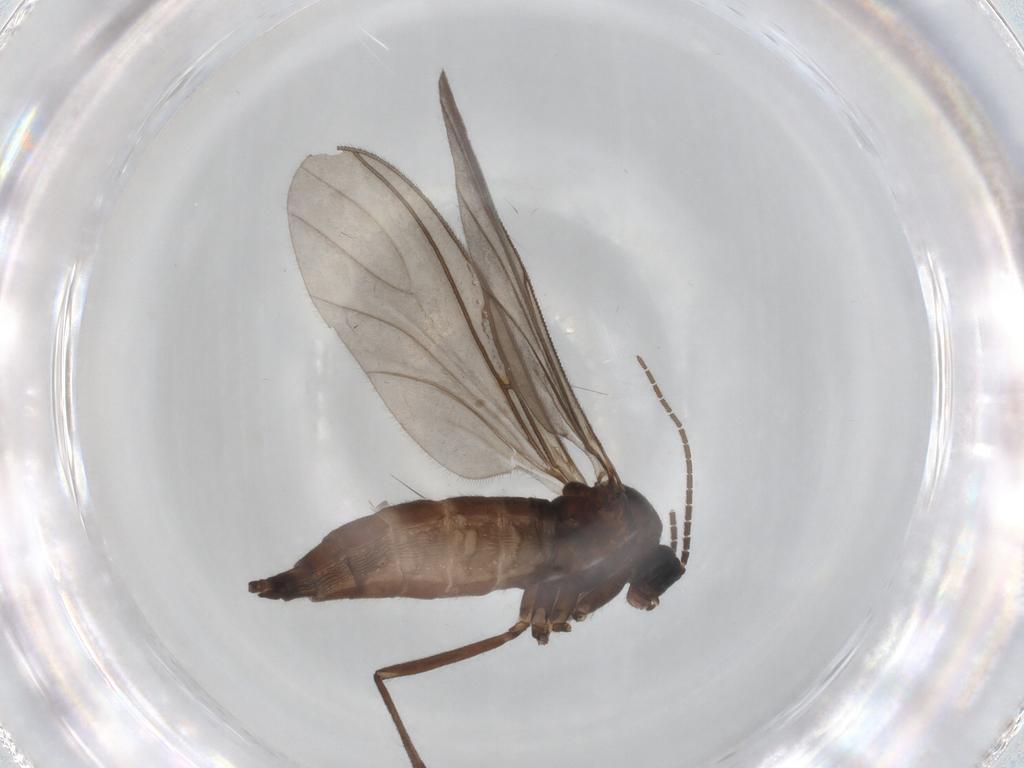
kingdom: Animalia
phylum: Arthropoda
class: Insecta
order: Diptera
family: Sciaridae
